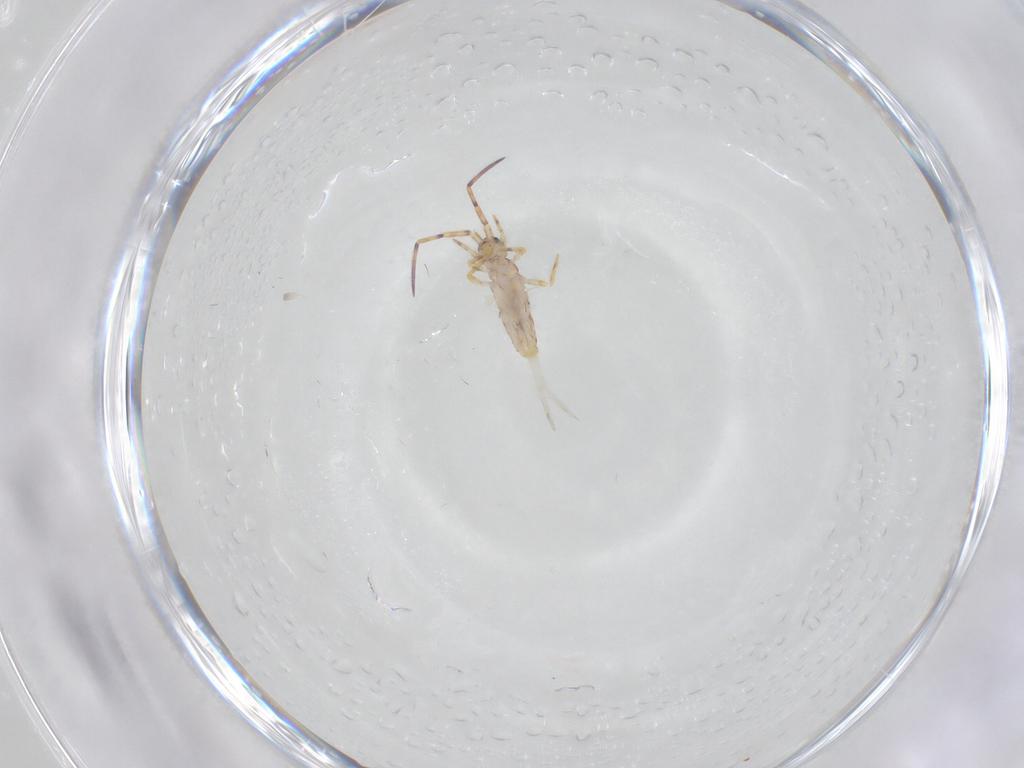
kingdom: Animalia
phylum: Arthropoda
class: Collembola
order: Entomobryomorpha
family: Entomobryidae
